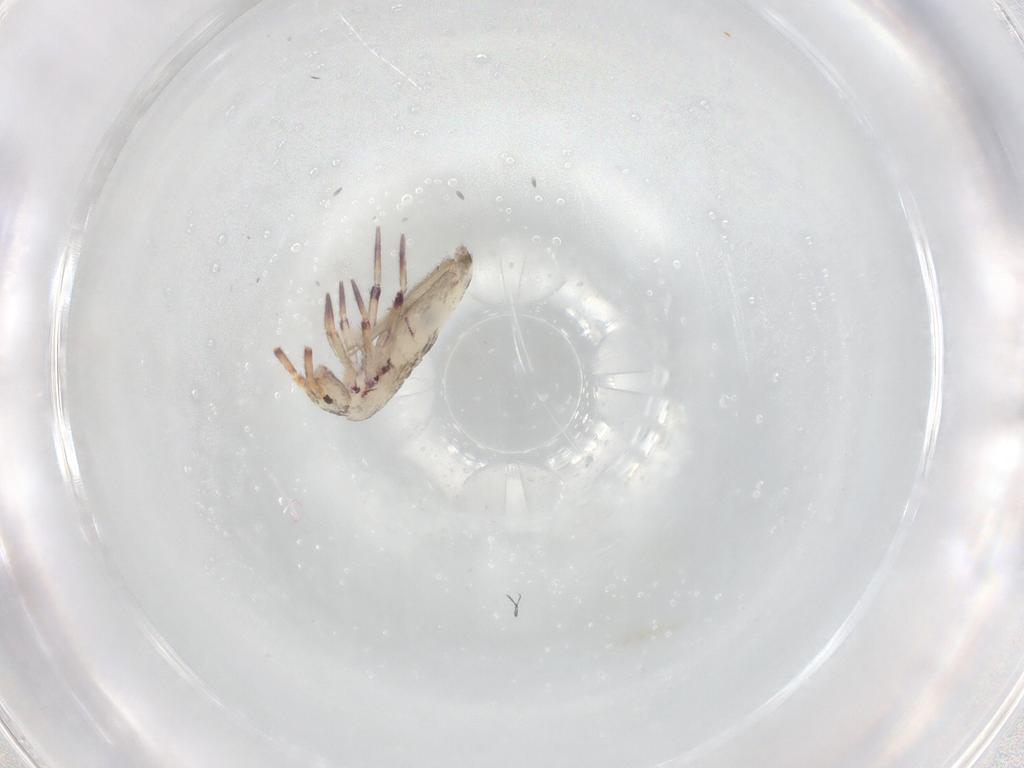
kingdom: Animalia
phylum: Arthropoda
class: Collembola
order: Entomobryomorpha
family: Entomobryidae
